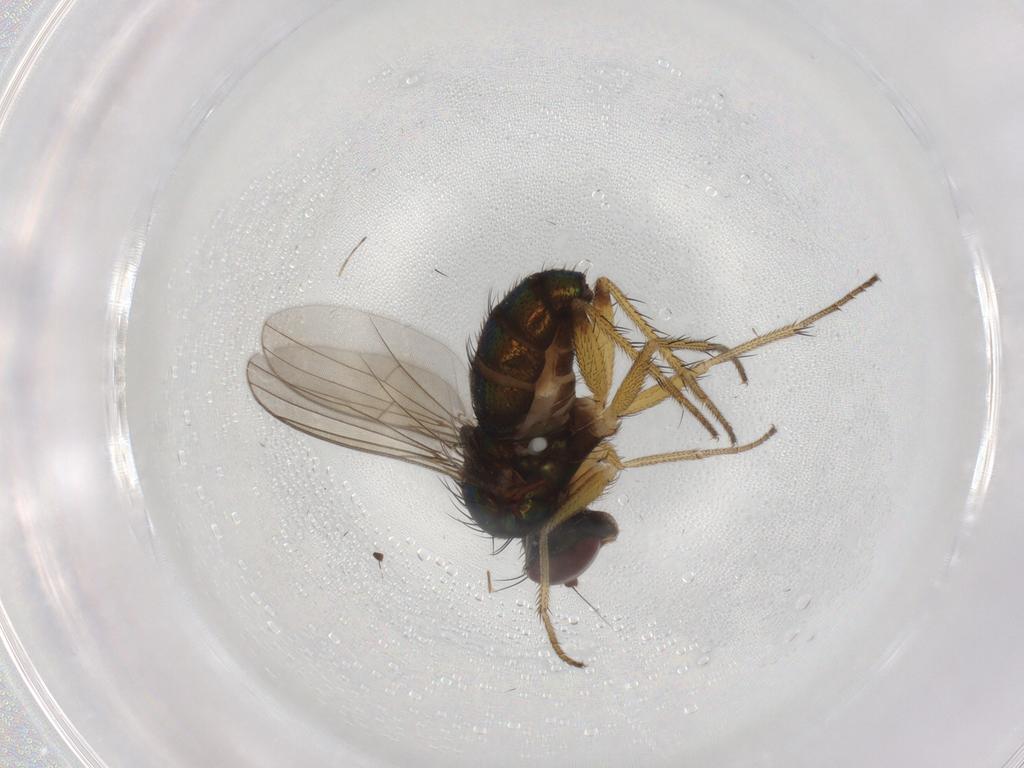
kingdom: Animalia
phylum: Arthropoda
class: Insecta
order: Diptera
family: Dolichopodidae
